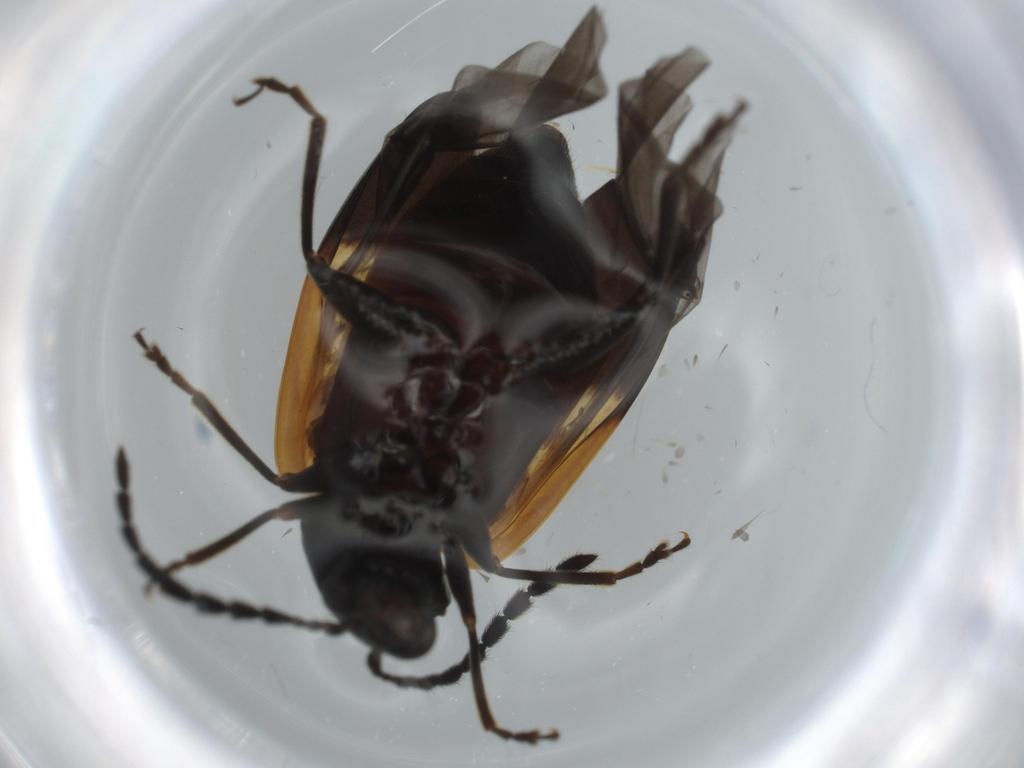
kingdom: Animalia
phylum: Arthropoda
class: Insecta
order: Coleoptera
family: Chrysomelidae
